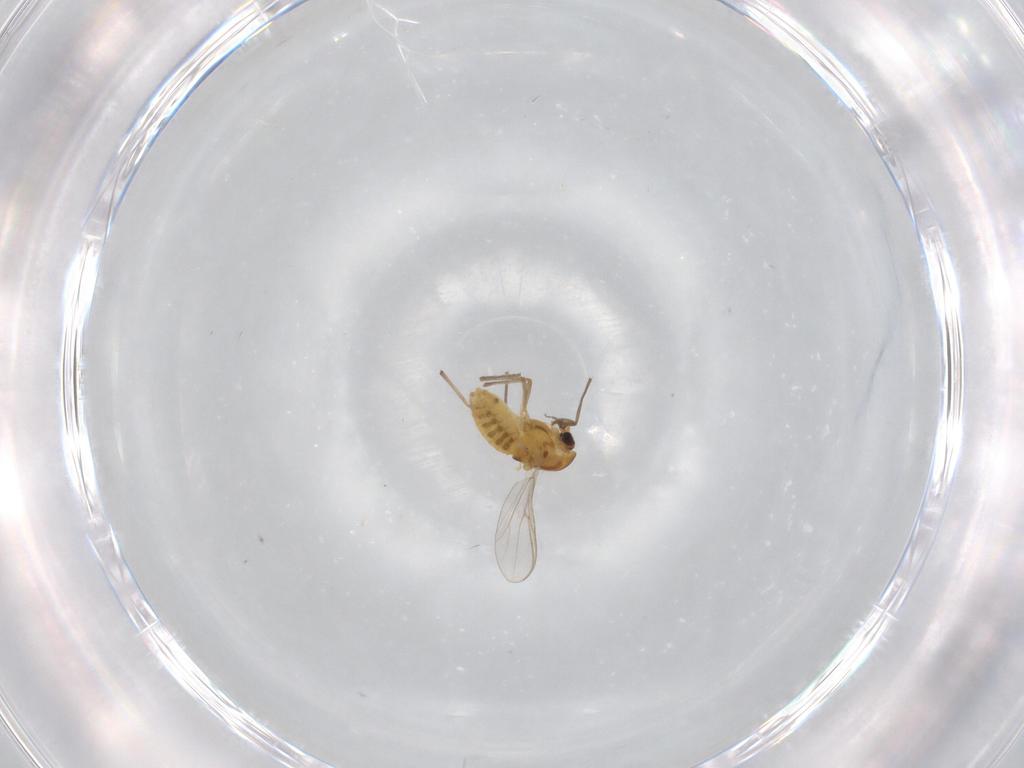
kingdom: Animalia
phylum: Arthropoda
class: Insecta
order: Diptera
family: Chironomidae
